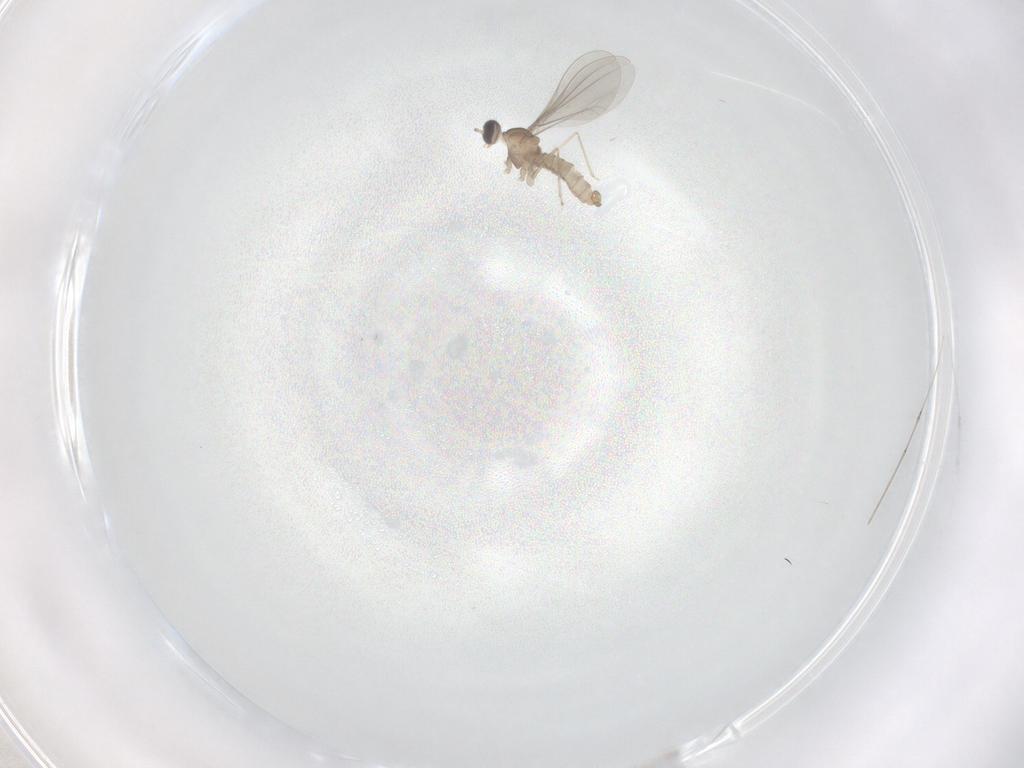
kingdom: Animalia
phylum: Arthropoda
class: Insecta
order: Diptera
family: Cecidomyiidae
